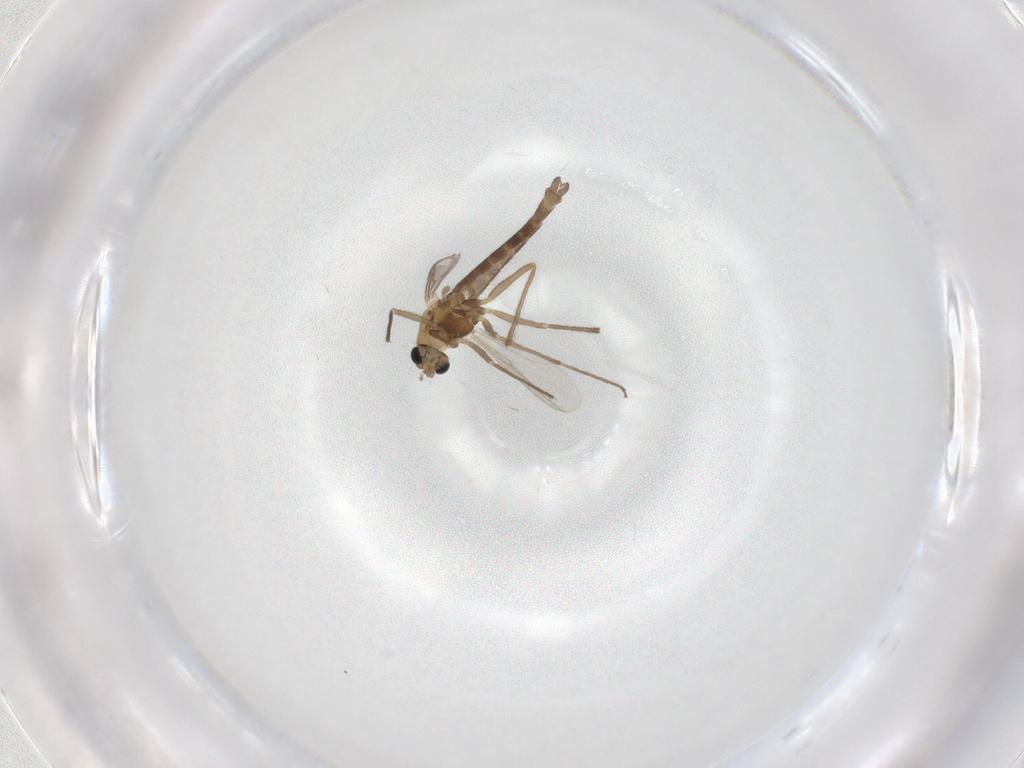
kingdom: Animalia
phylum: Arthropoda
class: Insecta
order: Diptera
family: Chironomidae
